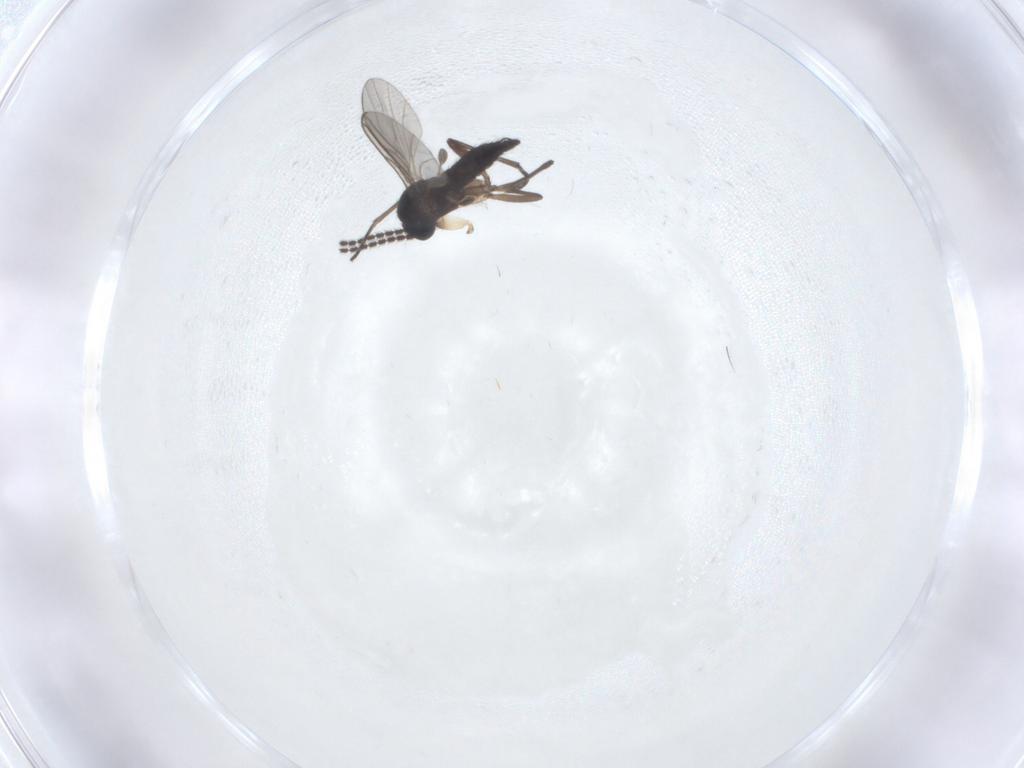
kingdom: Animalia
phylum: Arthropoda
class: Insecta
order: Diptera
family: Sciaridae
